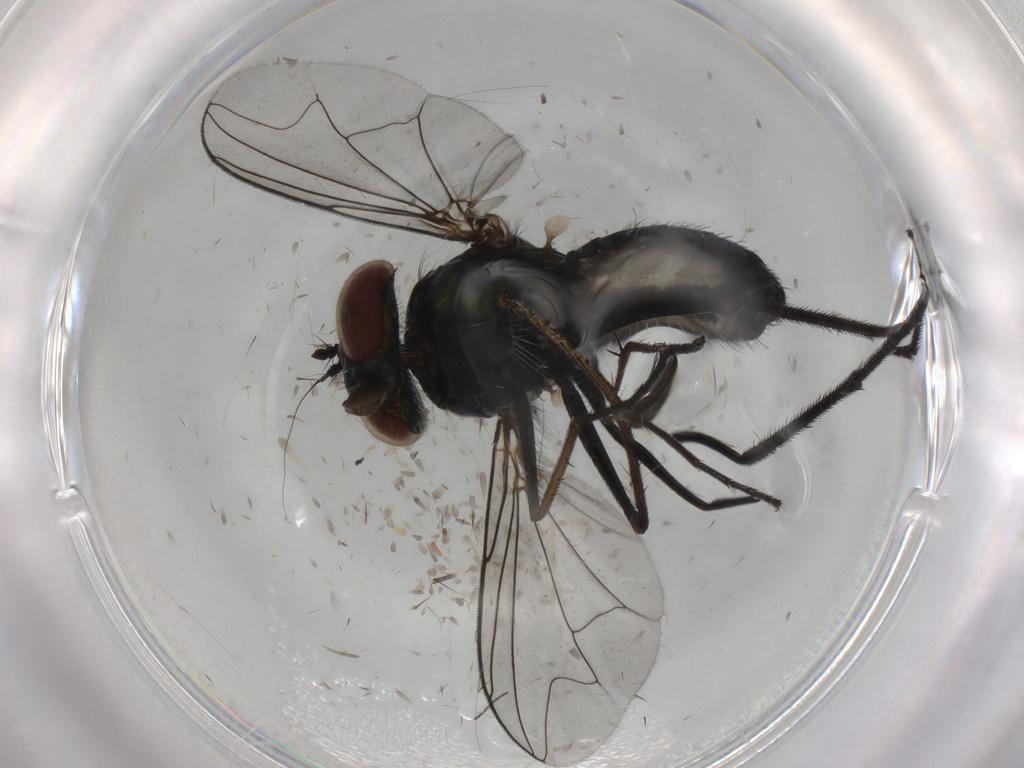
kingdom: Animalia
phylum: Arthropoda
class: Insecta
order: Diptera
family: Dolichopodidae
